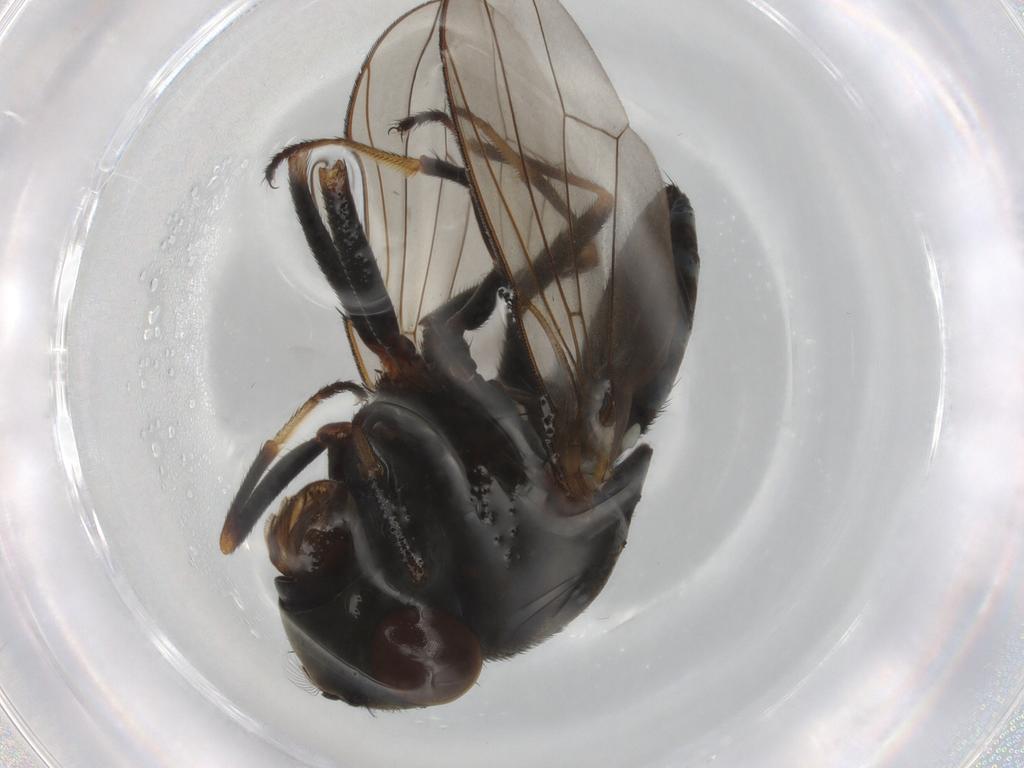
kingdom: Animalia
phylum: Arthropoda
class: Insecta
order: Diptera
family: Ephydridae
